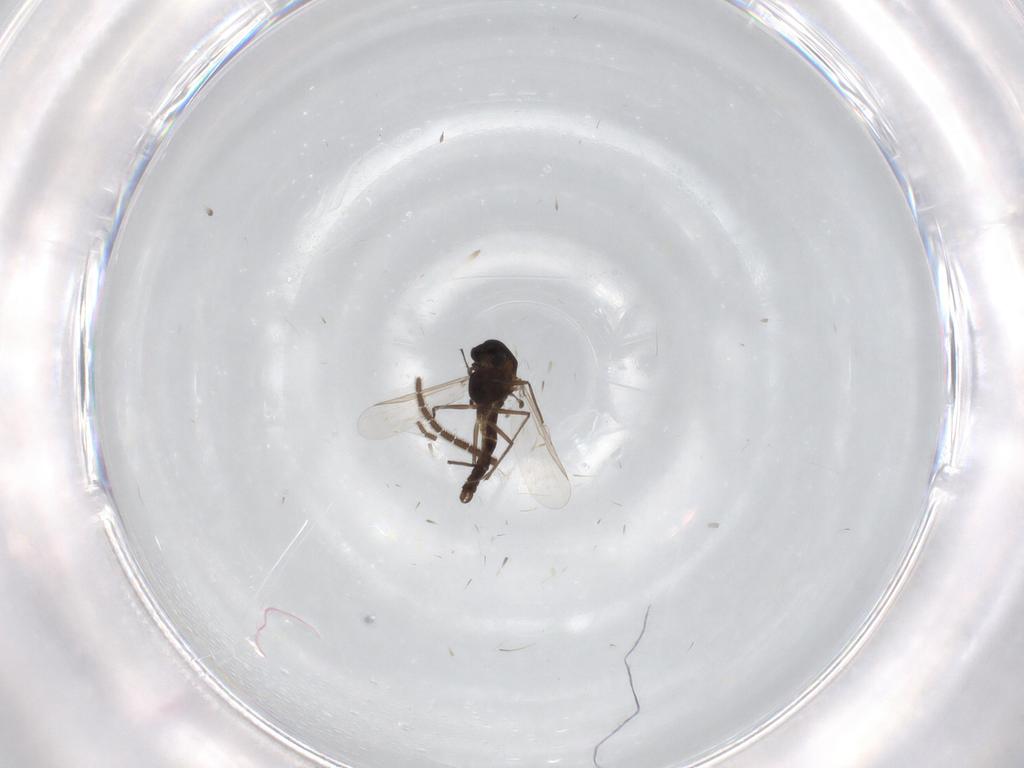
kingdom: Animalia
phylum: Arthropoda
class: Insecta
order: Diptera
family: Chironomidae
